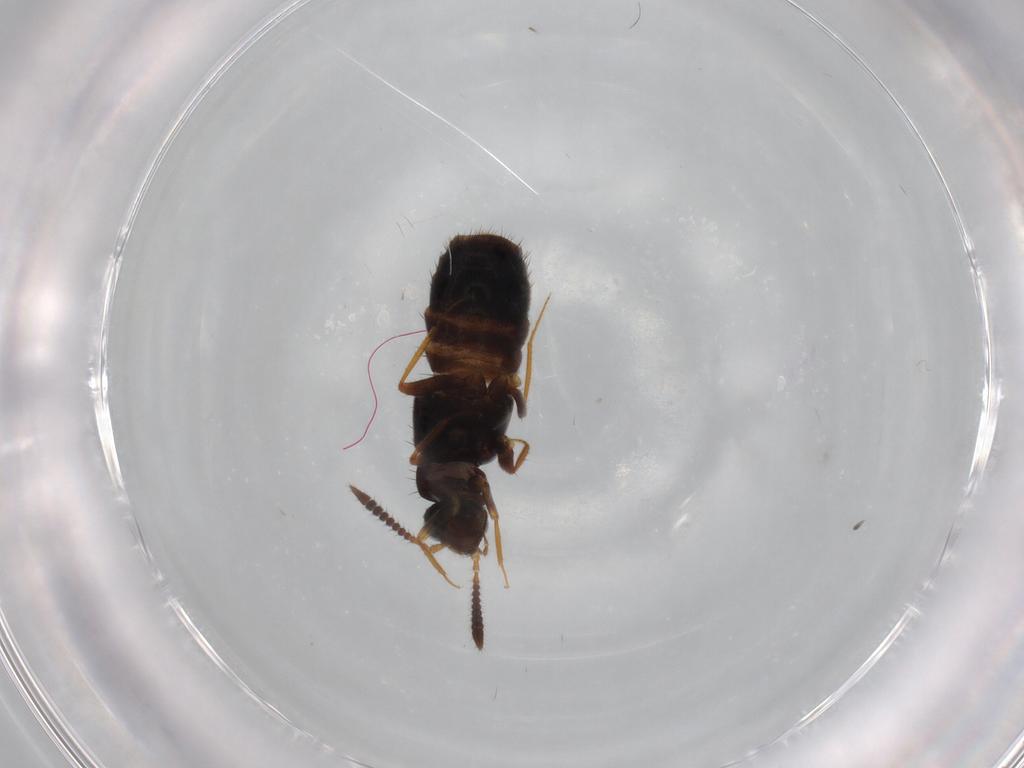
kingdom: Animalia
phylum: Arthropoda
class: Insecta
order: Coleoptera
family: Staphylinidae
